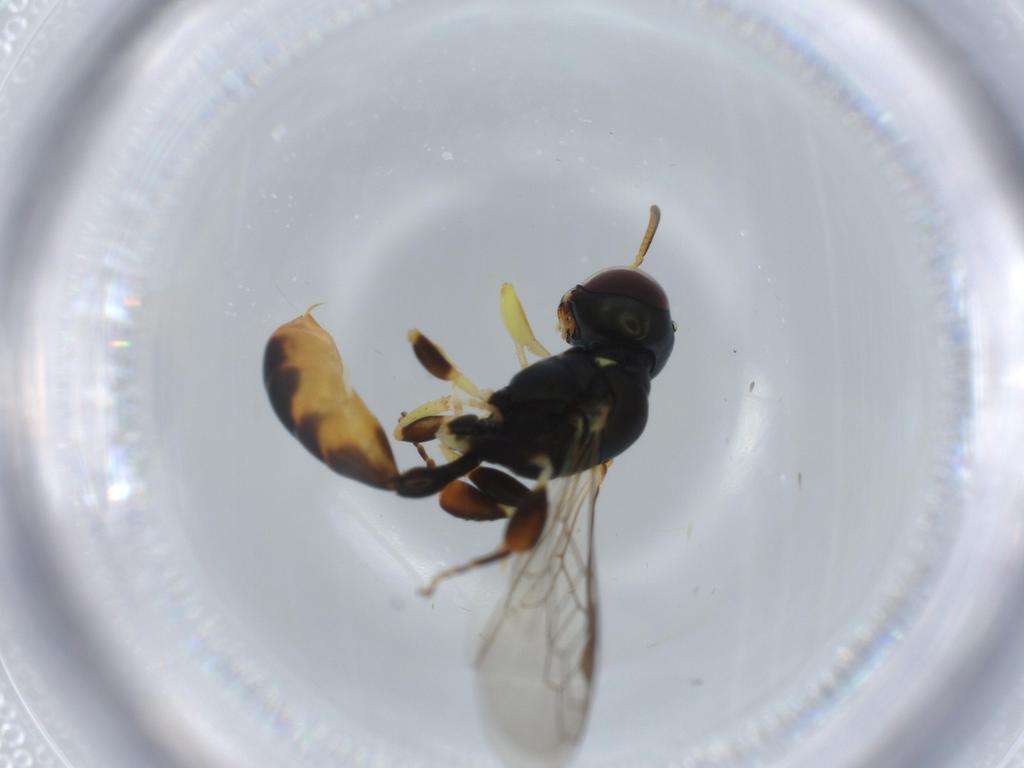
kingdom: Animalia
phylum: Arthropoda
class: Insecta
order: Hymenoptera
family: Crabronidae
